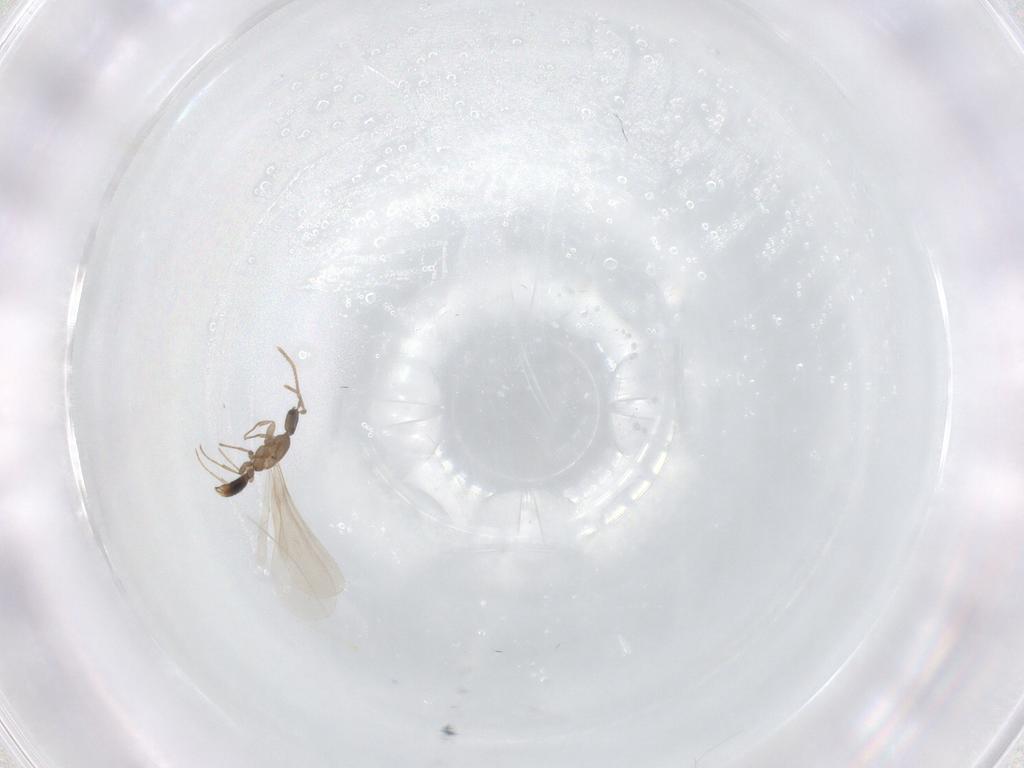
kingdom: Animalia
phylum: Arthropoda
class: Insecta
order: Hymenoptera
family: Formicidae
